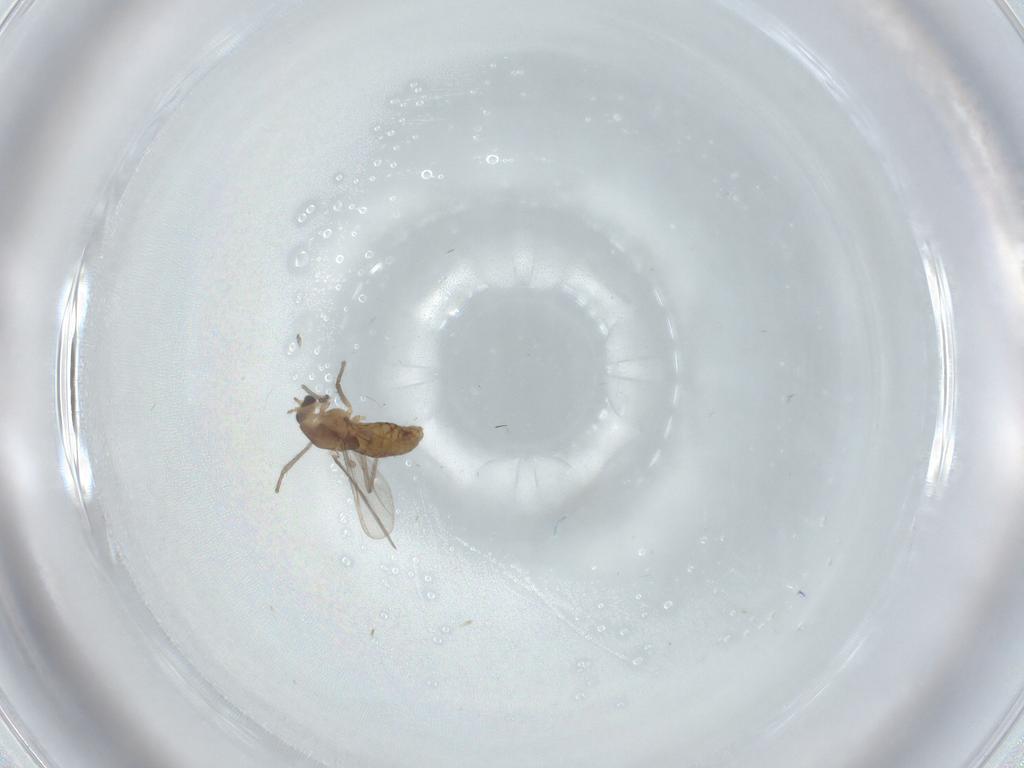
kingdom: Animalia
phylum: Arthropoda
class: Insecta
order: Diptera
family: Chironomidae
